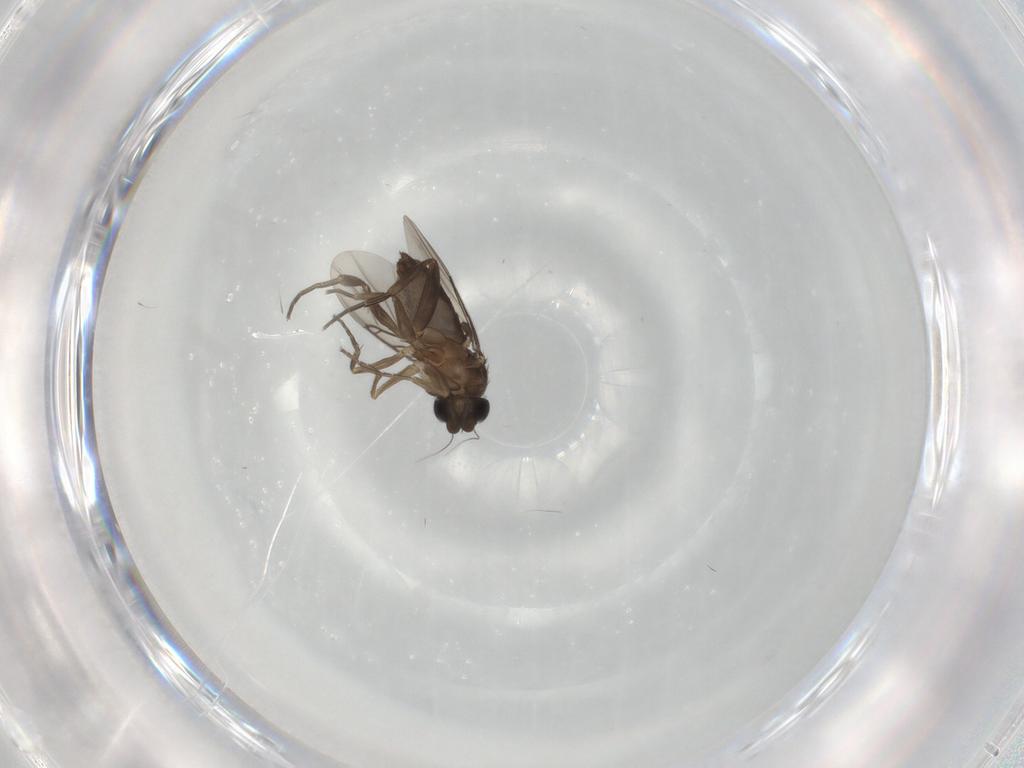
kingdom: Animalia
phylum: Arthropoda
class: Insecta
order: Diptera
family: Phoridae
